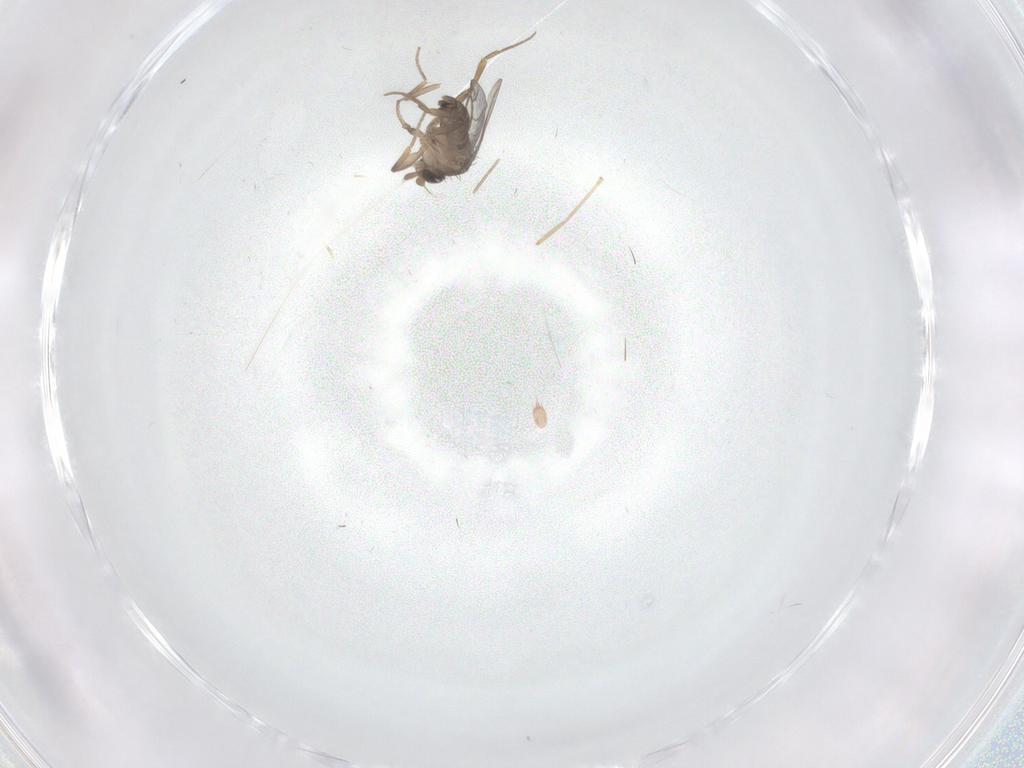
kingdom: Animalia
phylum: Arthropoda
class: Insecta
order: Diptera
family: Phoridae
